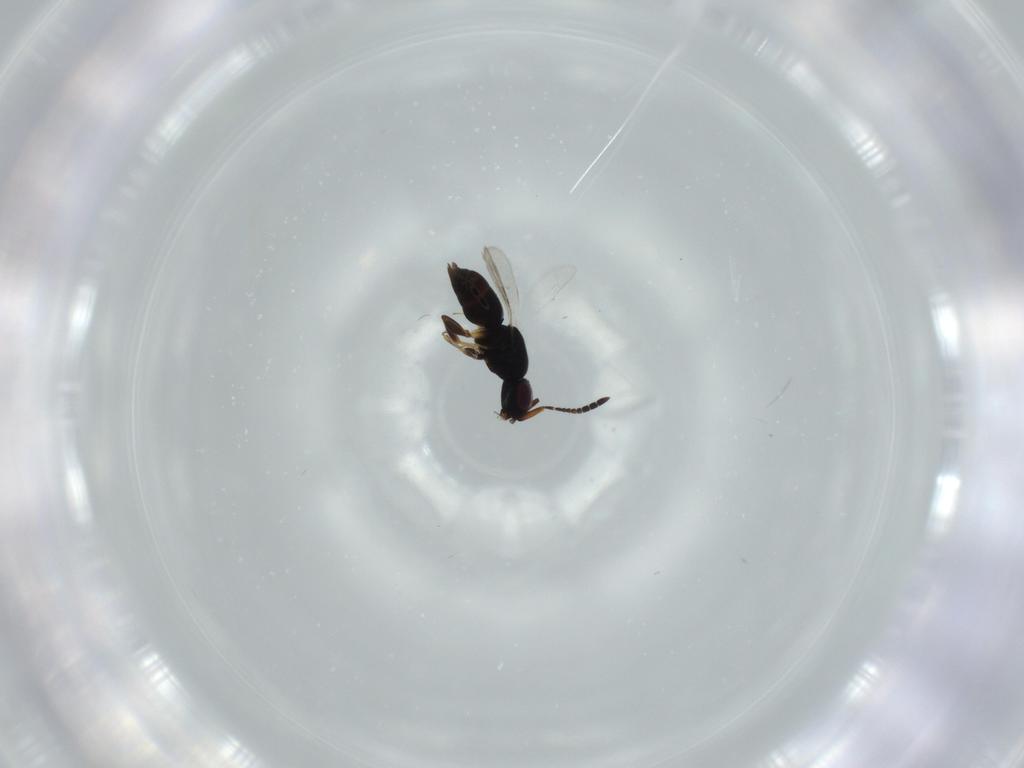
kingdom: Animalia
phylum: Arthropoda
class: Insecta
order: Hymenoptera
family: Ceraphronidae
